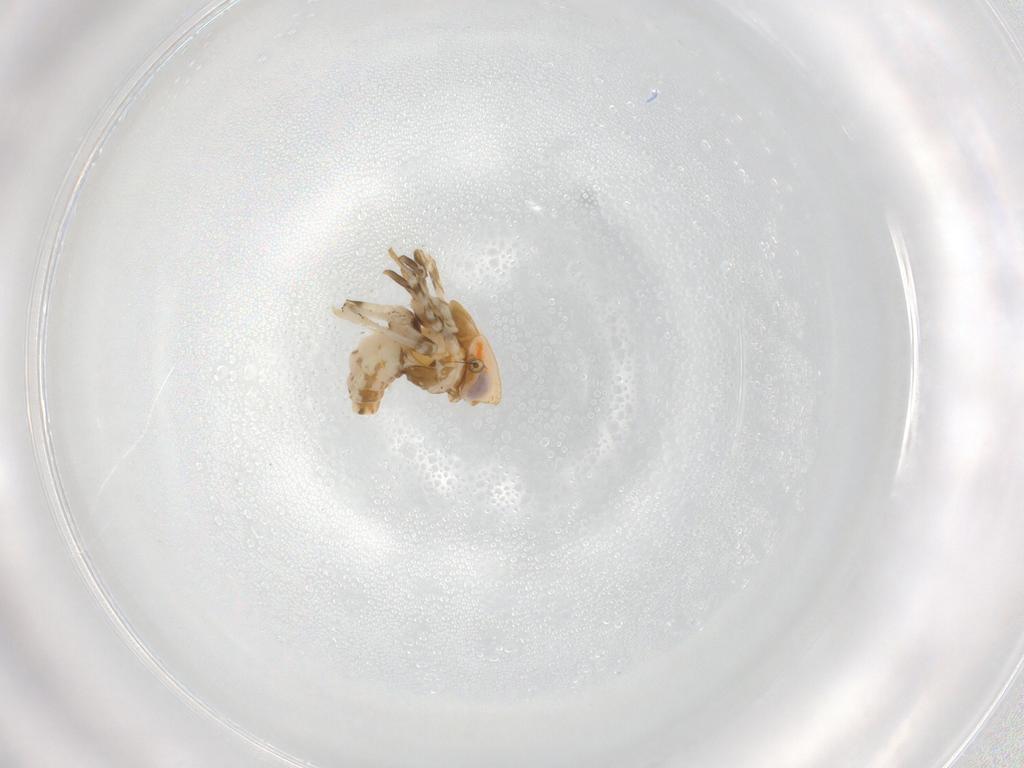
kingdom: Animalia
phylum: Arthropoda
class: Insecta
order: Hemiptera
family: Lophopidae
